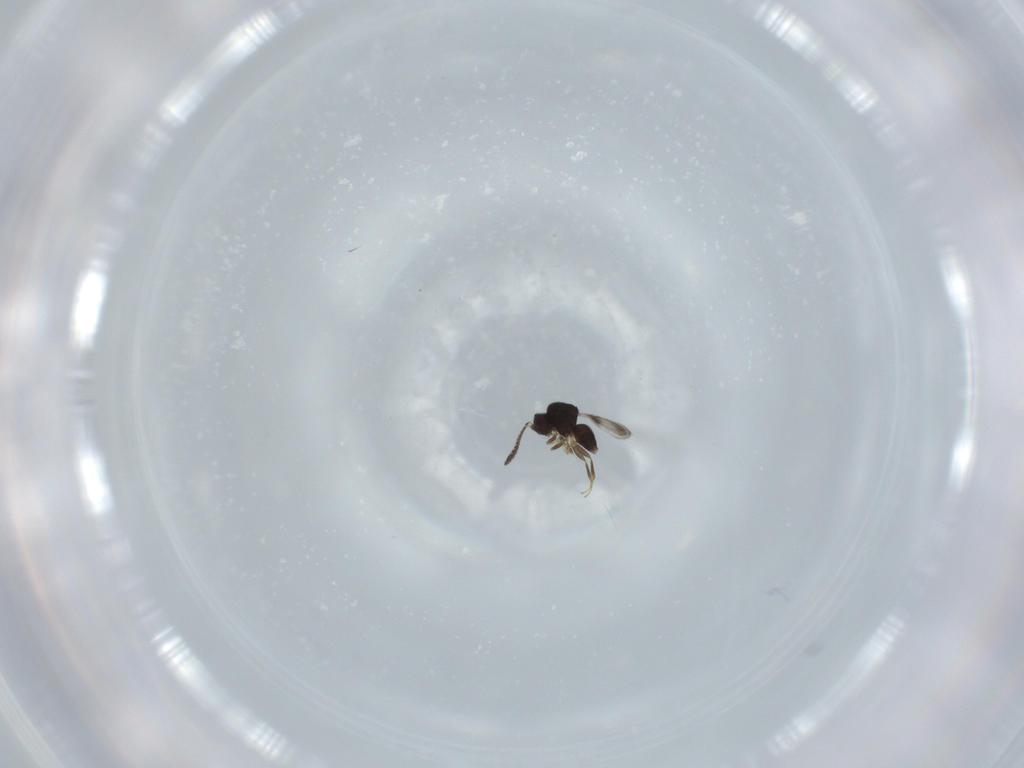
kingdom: Animalia
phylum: Arthropoda
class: Insecta
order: Hymenoptera
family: Ceraphronidae
